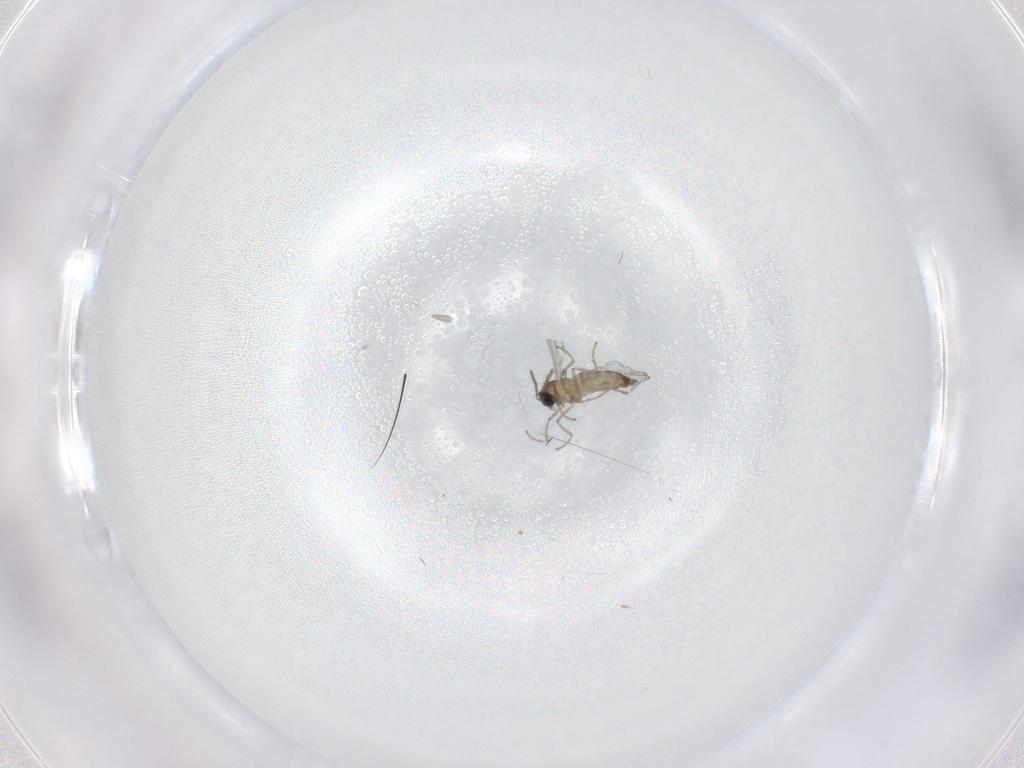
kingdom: Animalia
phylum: Arthropoda
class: Insecta
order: Diptera
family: Cecidomyiidae
